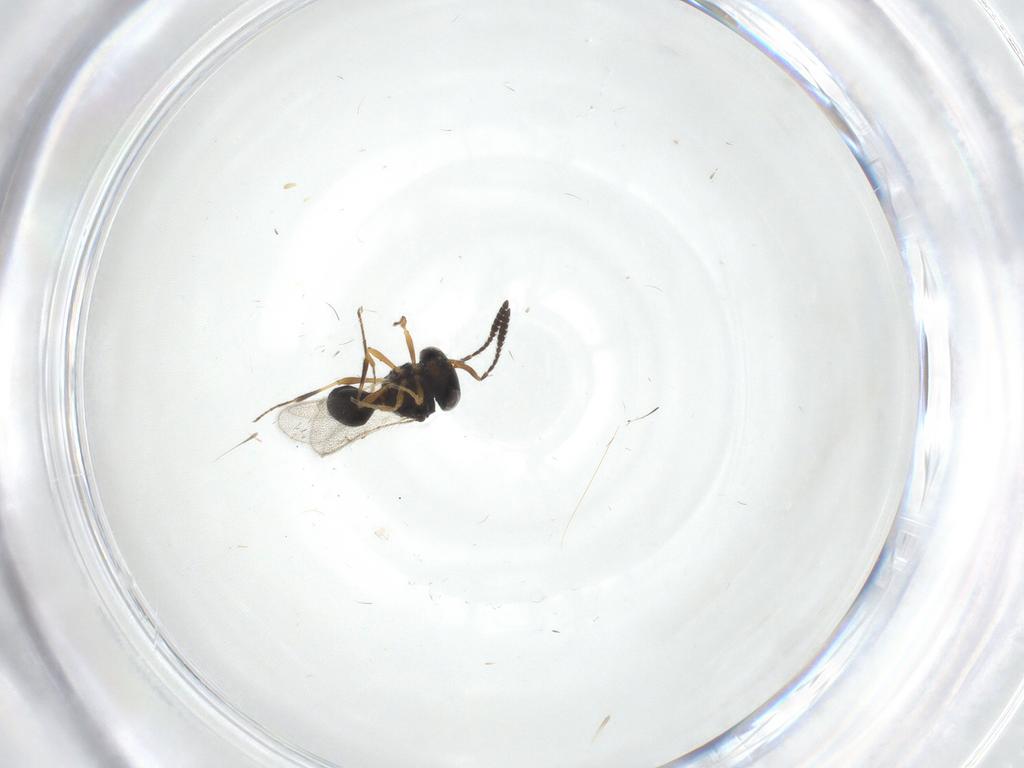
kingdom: Animalia
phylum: Arthropoda
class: Insecta
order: Hymenoptera
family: Scelionidae
